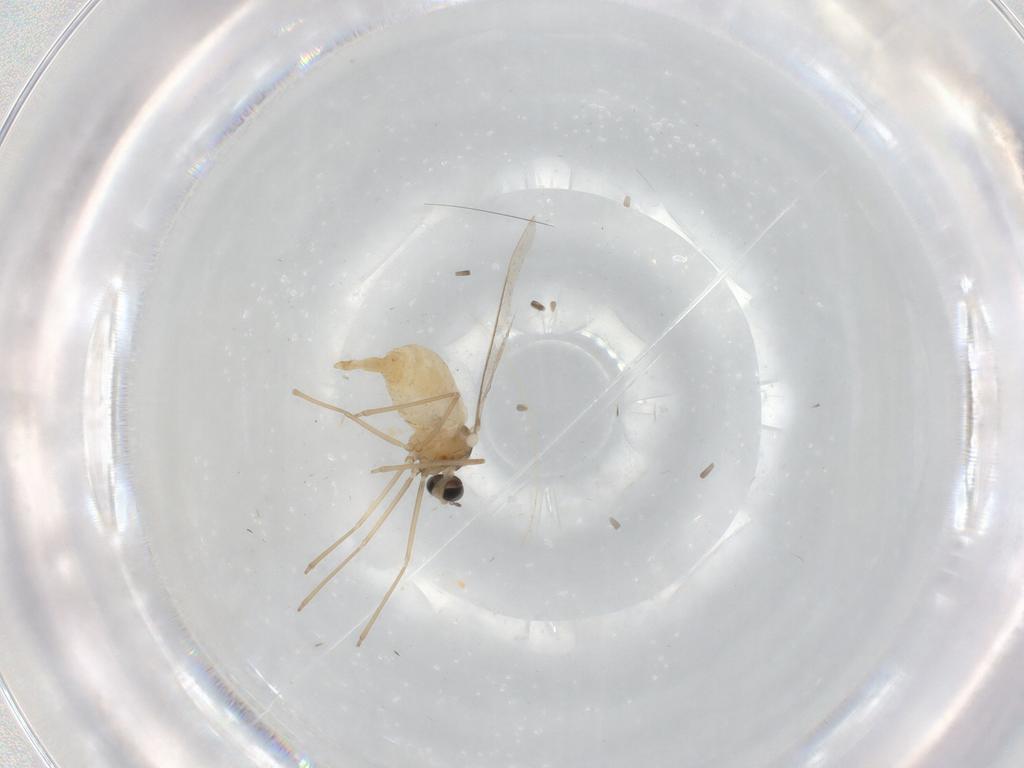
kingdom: Animalia
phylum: Arthropoda
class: Insecta
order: Diptera
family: Cecidomyiidae
